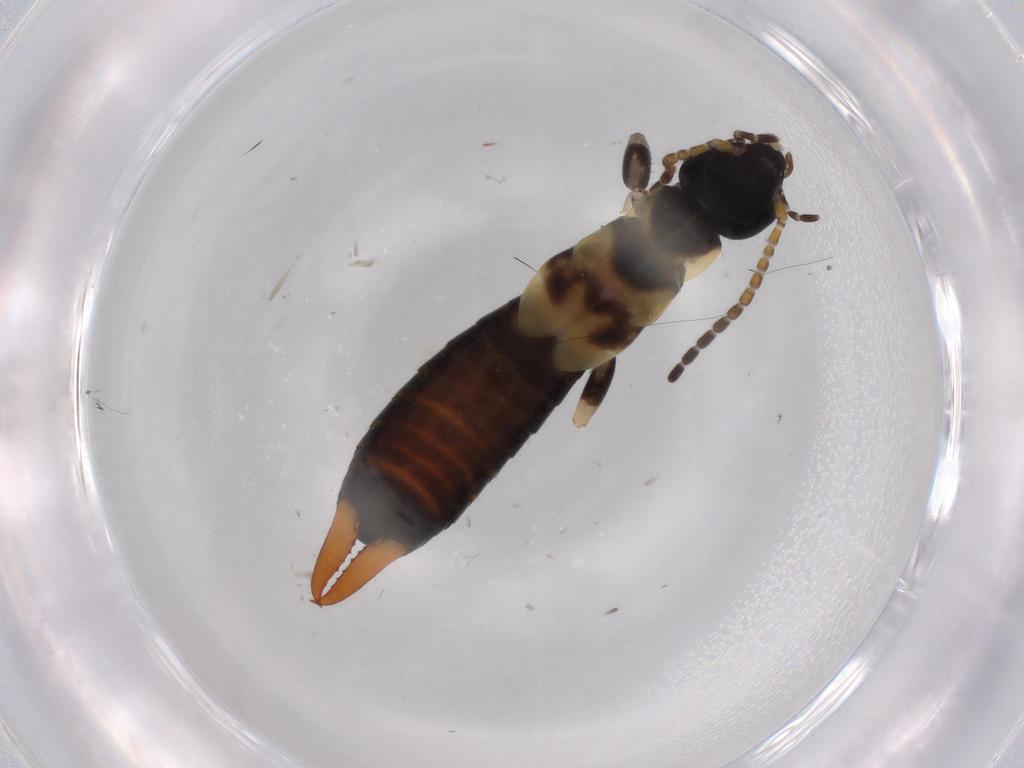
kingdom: Animalia
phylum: Arthropoda
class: Insecta
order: Dermaptera
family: Labiduridae
